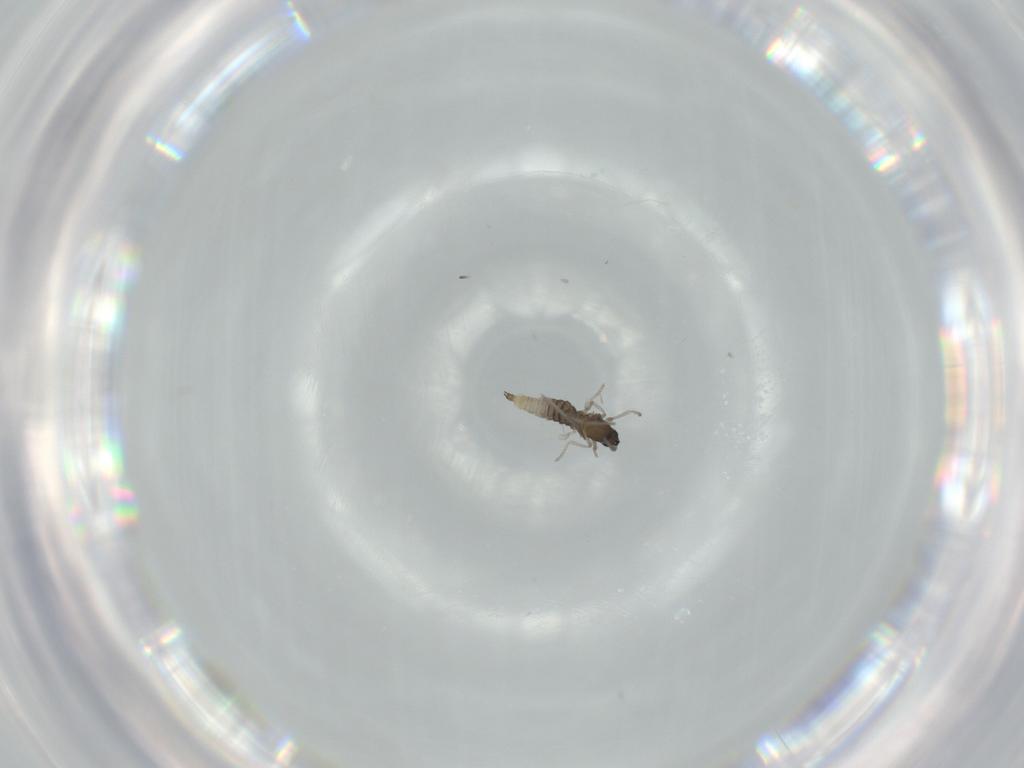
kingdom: Animalia
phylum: Arthropoda
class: Insecta
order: Diptera
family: Cecidomyiidae
